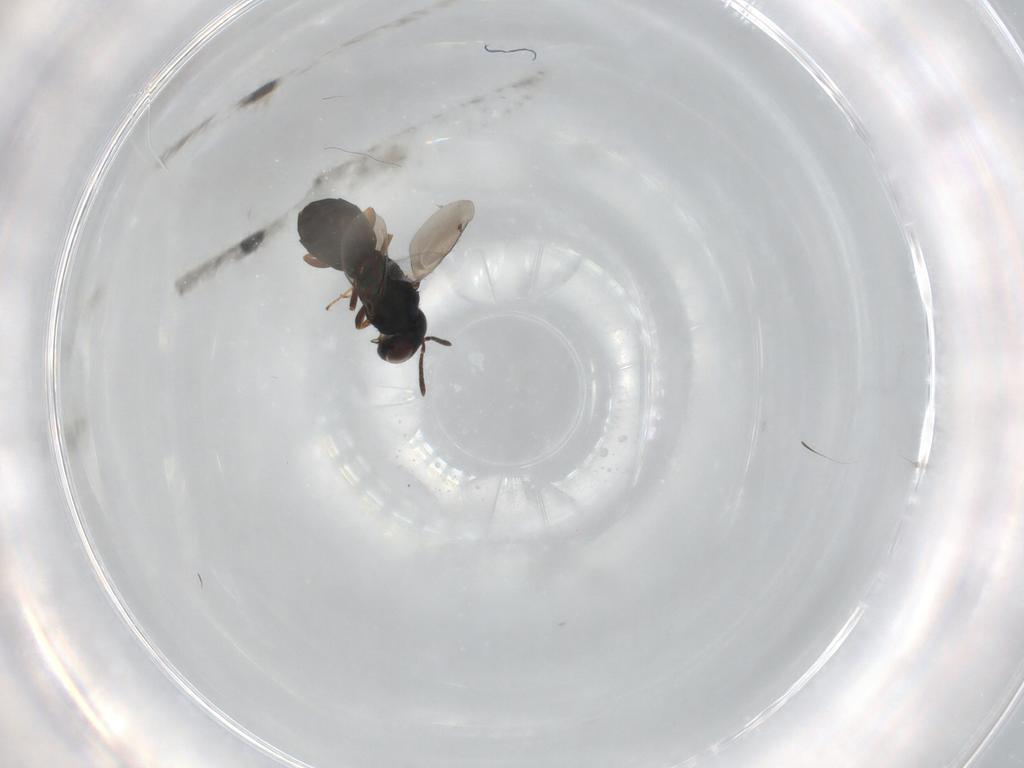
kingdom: Animalia
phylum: Arthropoda
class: Insecta
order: Hymenoptera
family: Pteromalidae
